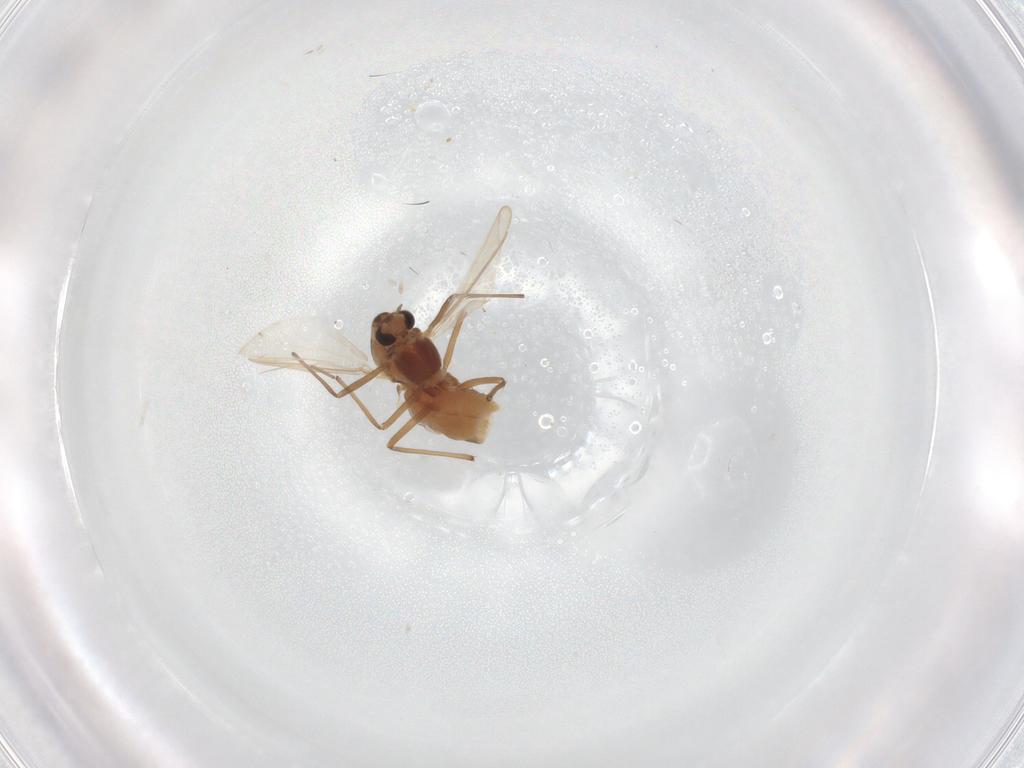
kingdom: Animalia
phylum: Arthropoda
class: Insecta
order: Diptera
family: Chironomidae
